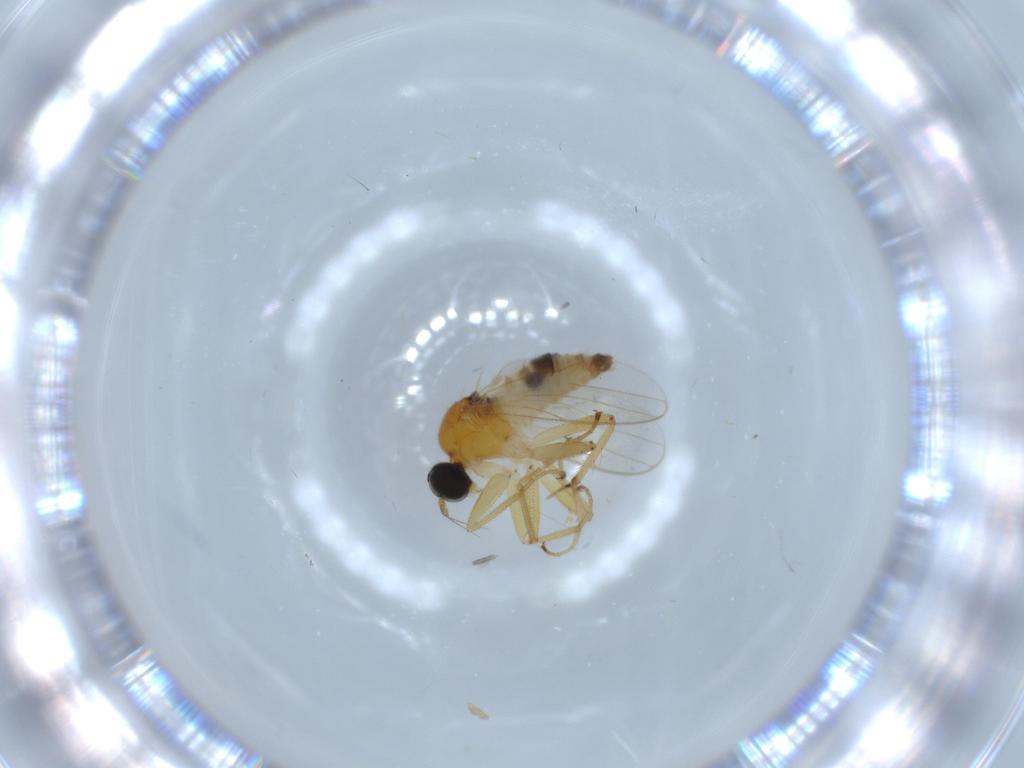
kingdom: Animalia
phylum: Arthropoda
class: Insecta
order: Diptera
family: Hybotidae
